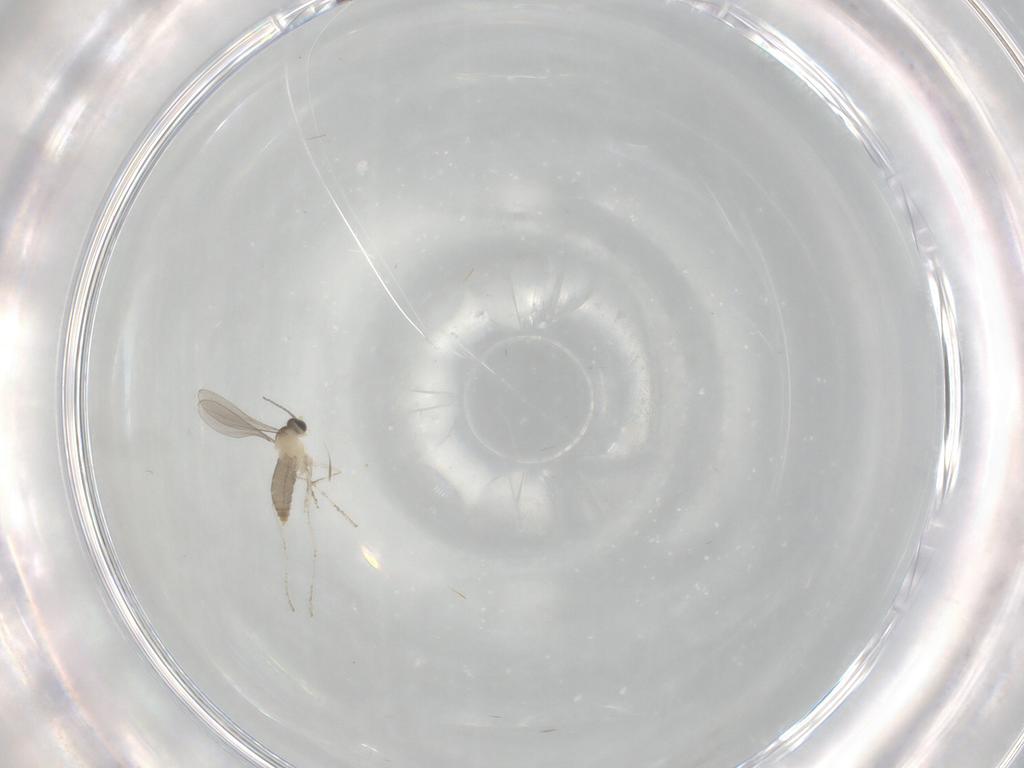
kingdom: Animalia
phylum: Arthropoda
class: Insecta
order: Diptera
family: Cecidomyiidae
